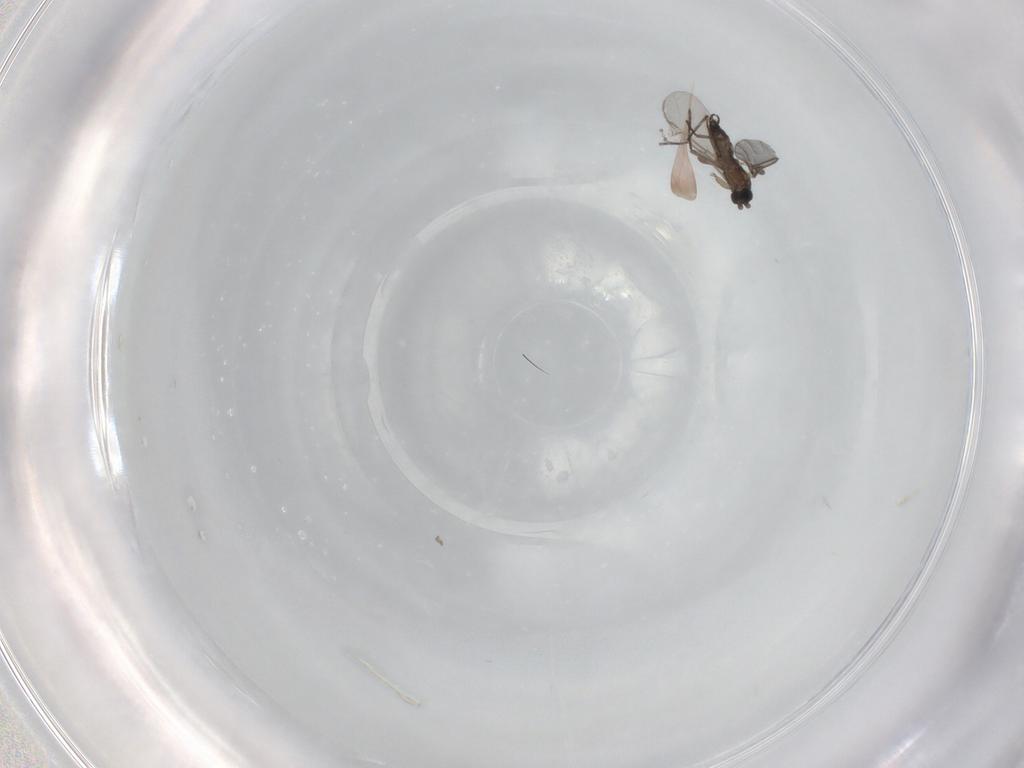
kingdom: Animalia
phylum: Arthropoda
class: Insecta
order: Diptera
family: Sciaridae
